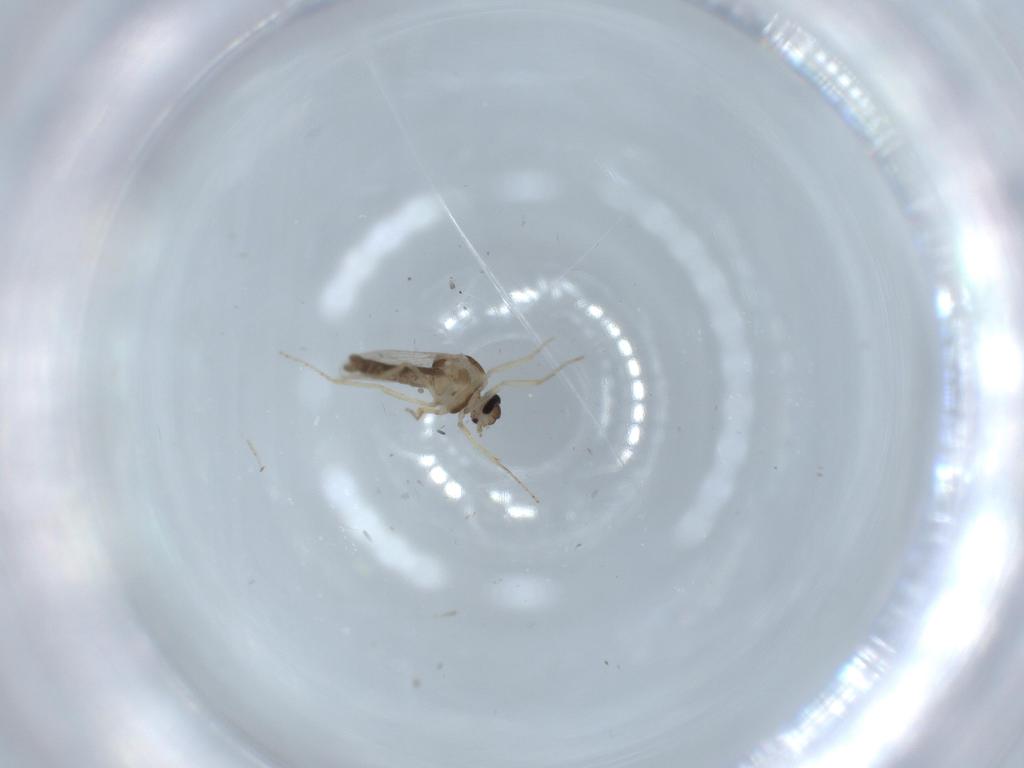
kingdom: Animalia
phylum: Arthropoda
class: Insecta
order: Diptera
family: Ceratopogonidae
